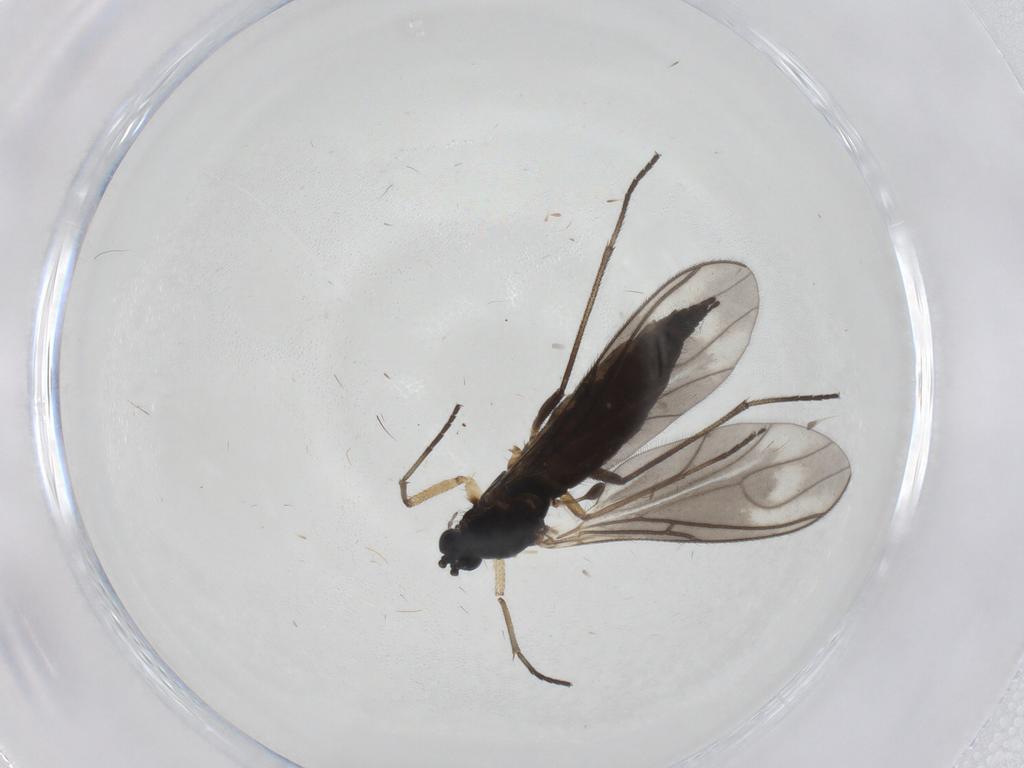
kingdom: Animalia
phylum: Arthropoda
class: Insecta
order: Diptera
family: Sciaridae
